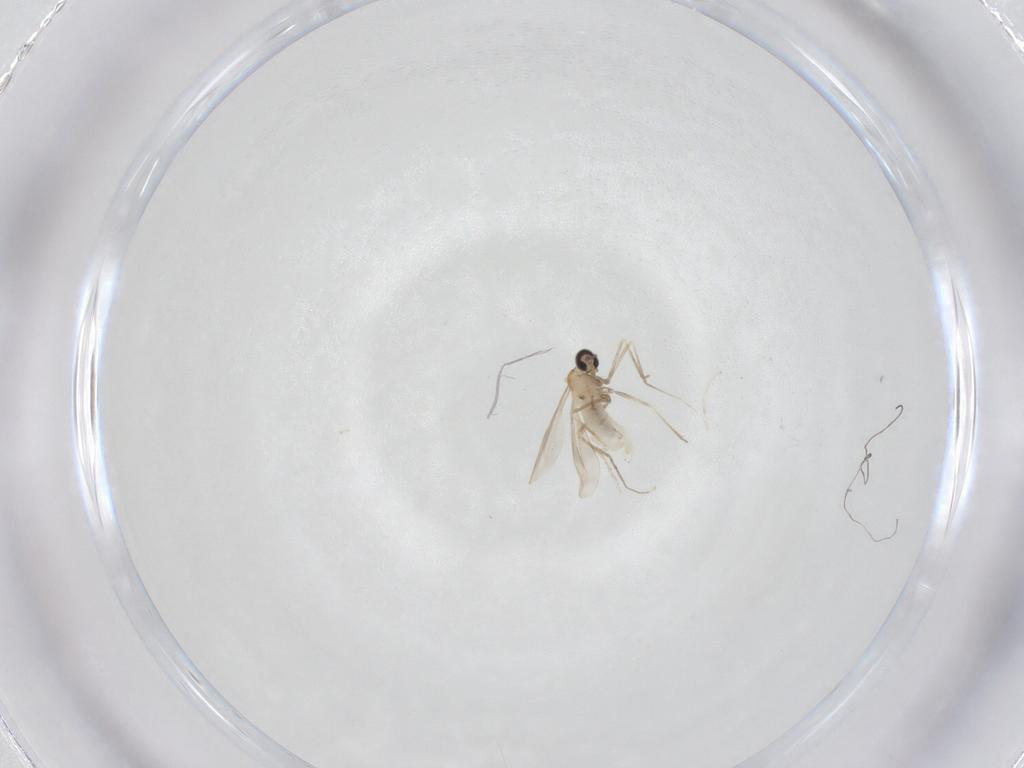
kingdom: Animalia
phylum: Arthropoda
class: Insecta
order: Diptera
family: Cecidomyiidae
